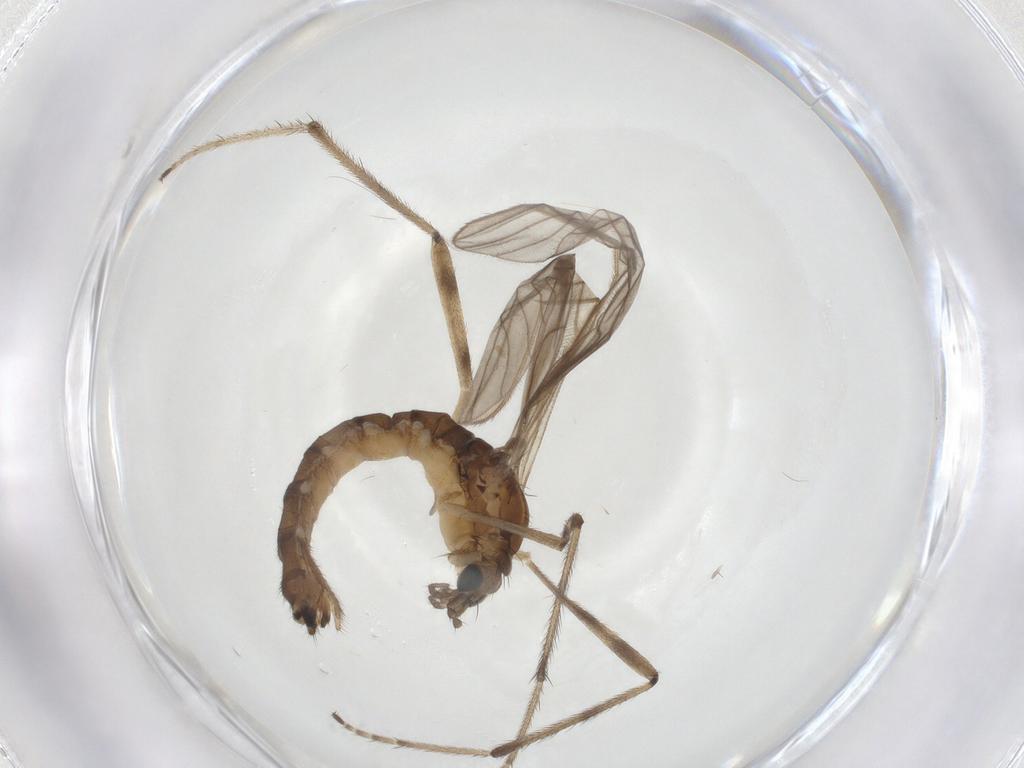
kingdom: Animalia
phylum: Arthropoda
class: Insecta
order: Diptera
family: Limoniidae
